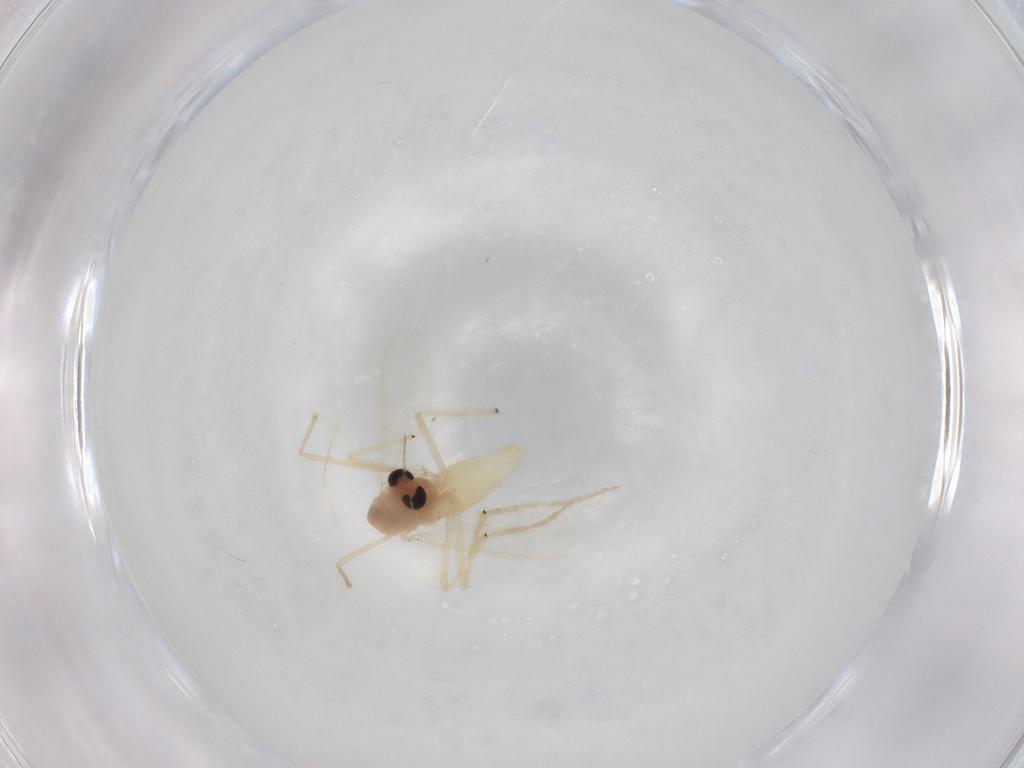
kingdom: Animalia
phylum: Arthropoda
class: Insecta
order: Diptera
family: Chironomidae
